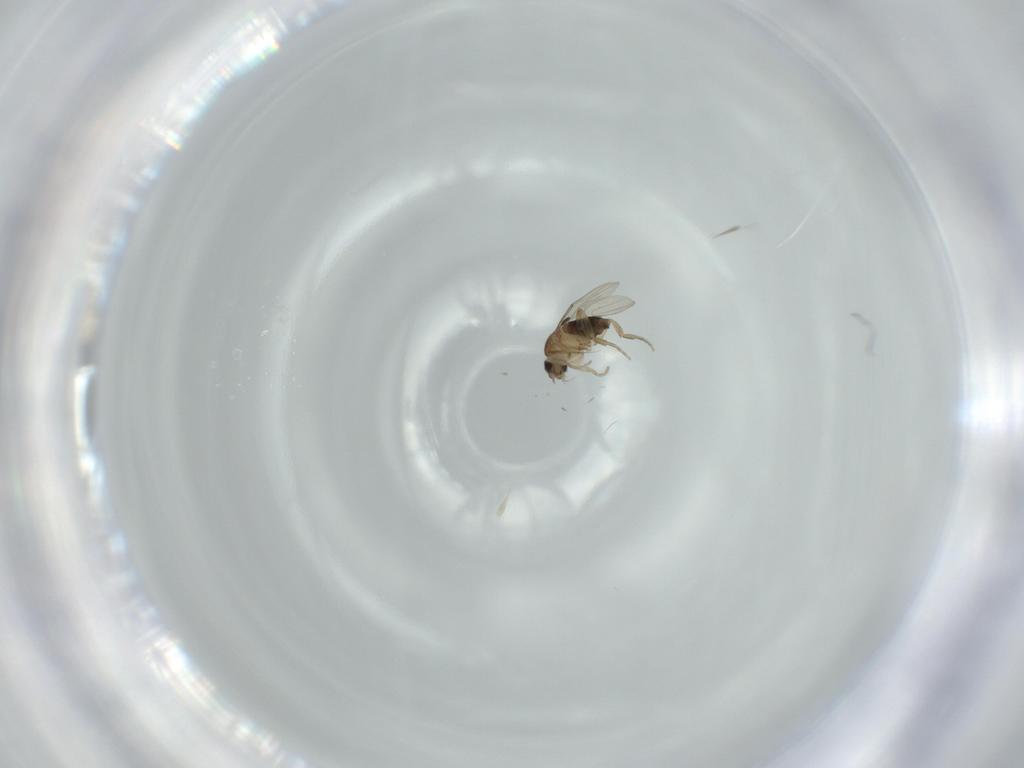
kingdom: Animalia
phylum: Arthropoda
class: Insecta
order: Diptera
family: Phoridae
